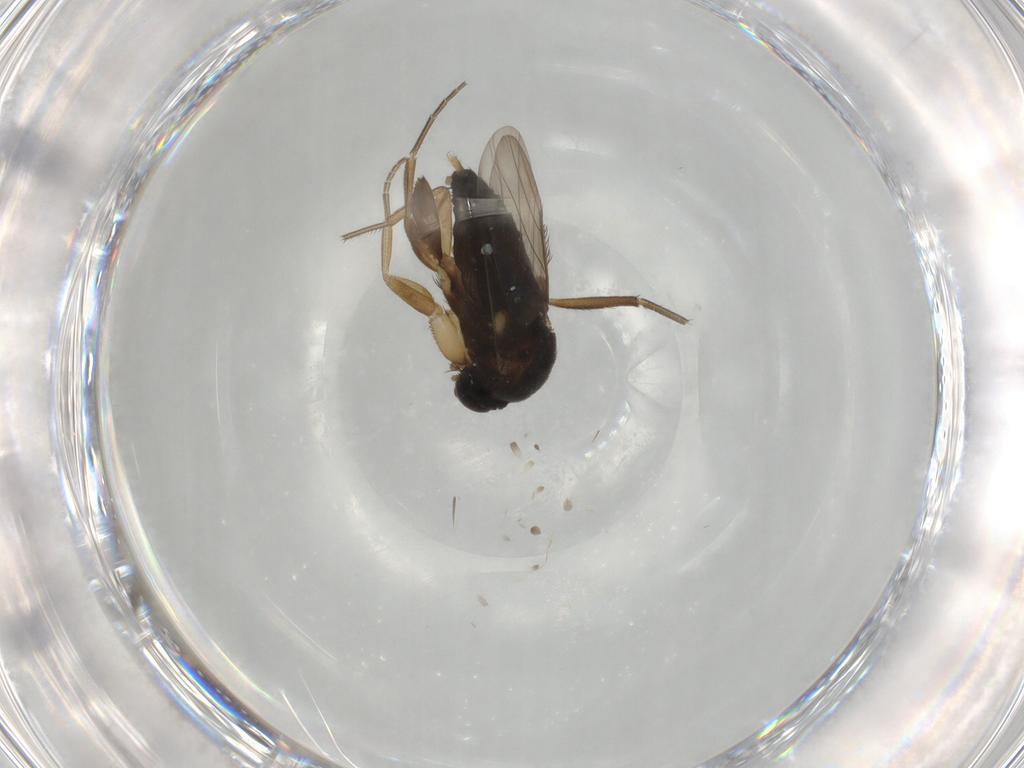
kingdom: Animalia
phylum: Arthropoda
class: Insecta
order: Diptera
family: Phoridae
